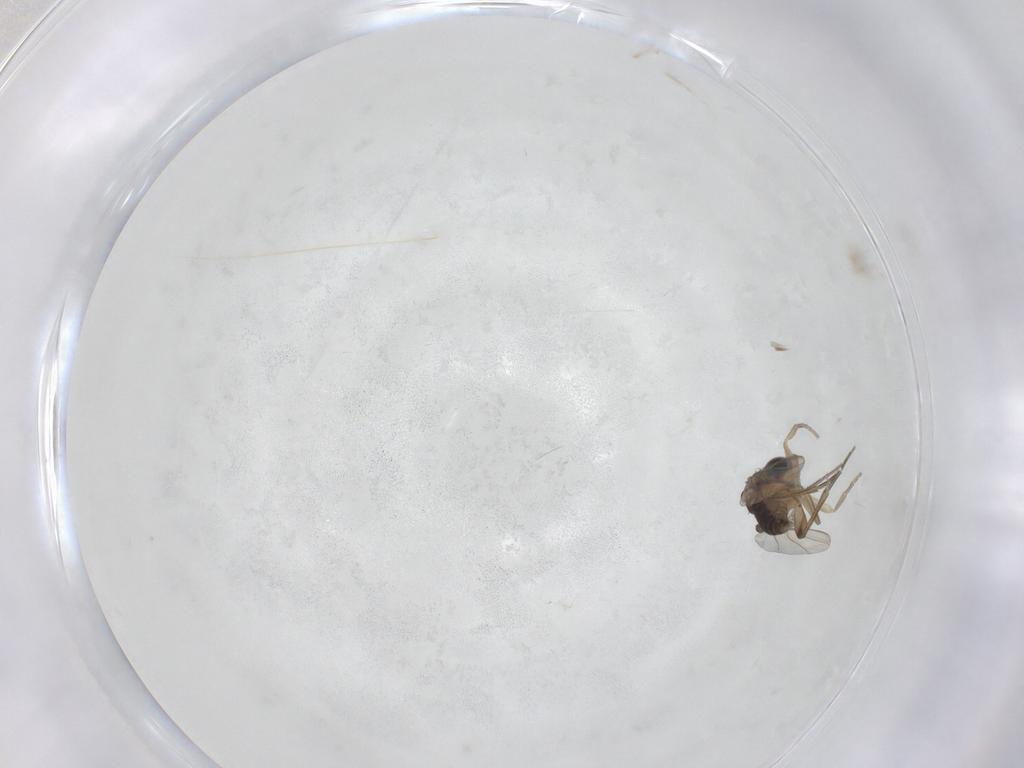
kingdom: Animalia
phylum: Arthropoda
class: Insecta
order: Diptera
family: Phoridae
